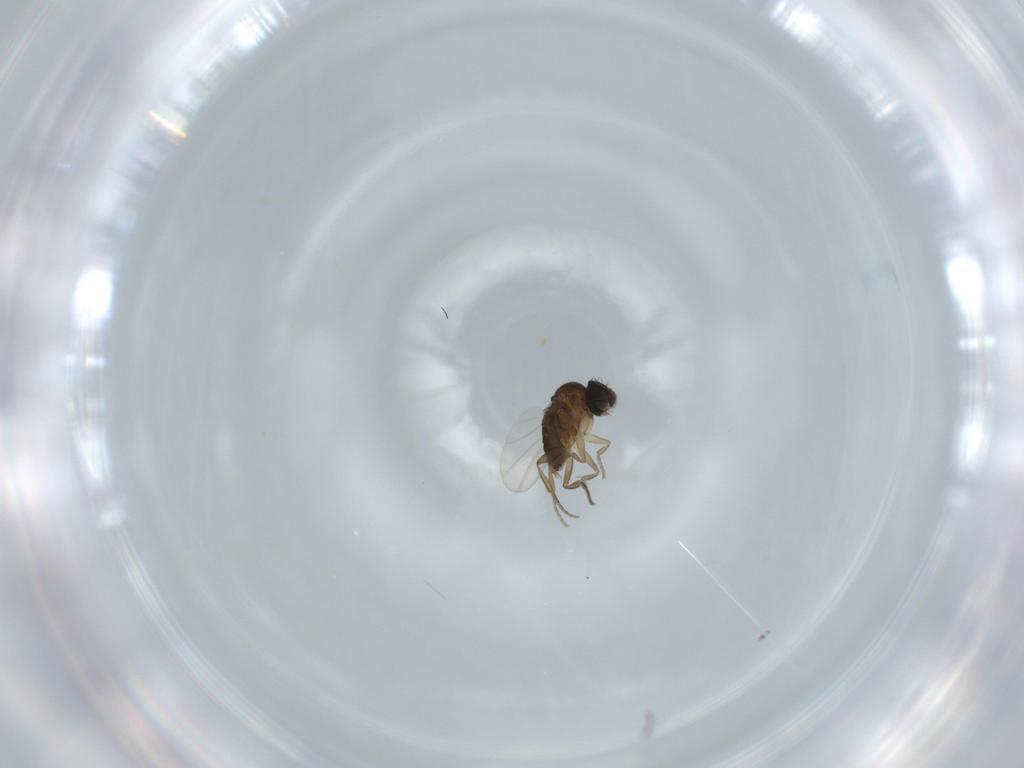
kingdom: Animalia
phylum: Arthropoda
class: Insecta
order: Diptera
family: Phoridae
